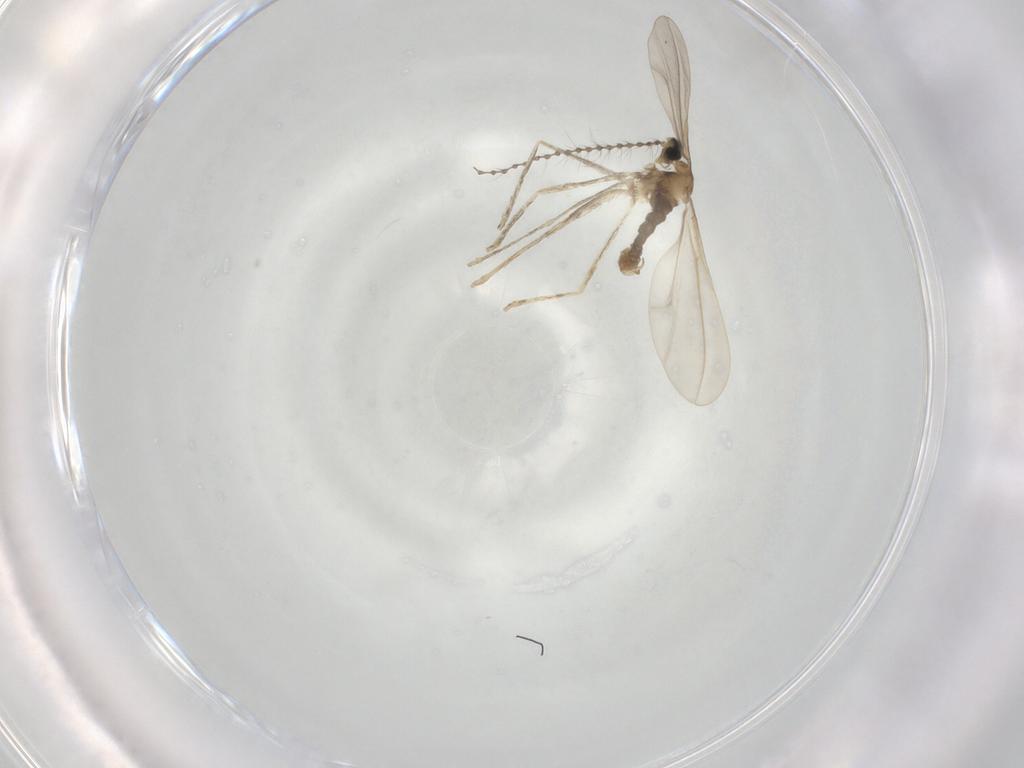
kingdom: Animalia
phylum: Arthropoda
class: Insecta
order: Diptera
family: Cecidomyiidae
